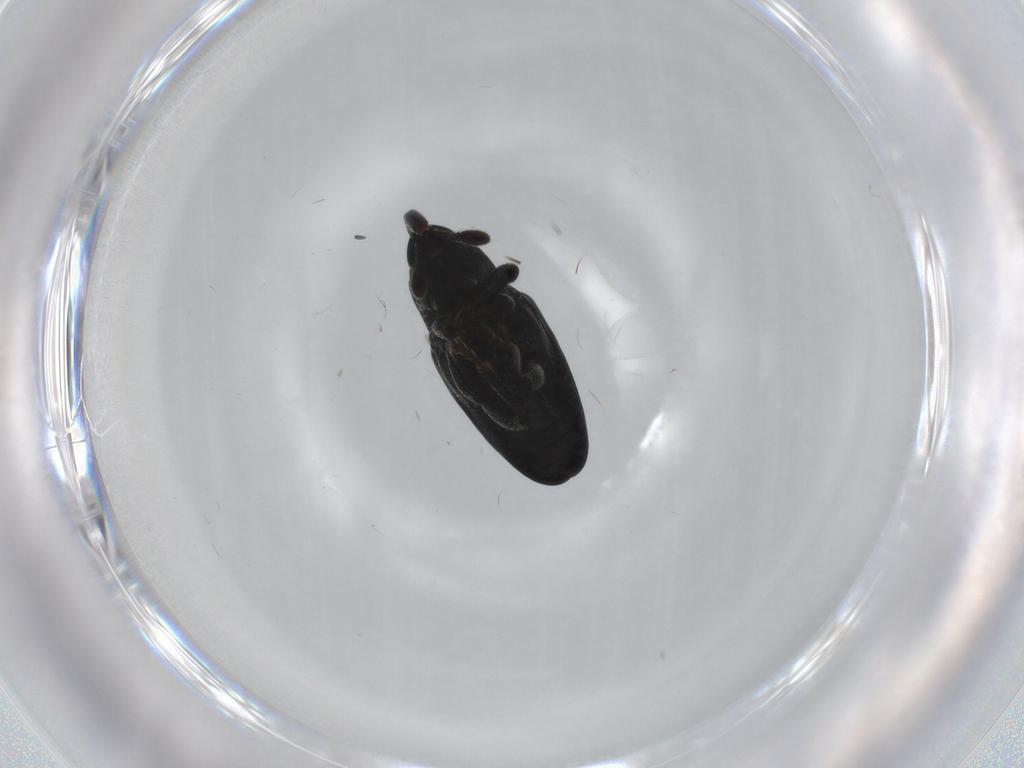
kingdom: Animalia
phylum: Arthropoda
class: Insecta
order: Coleoptera
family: Curculionidae
